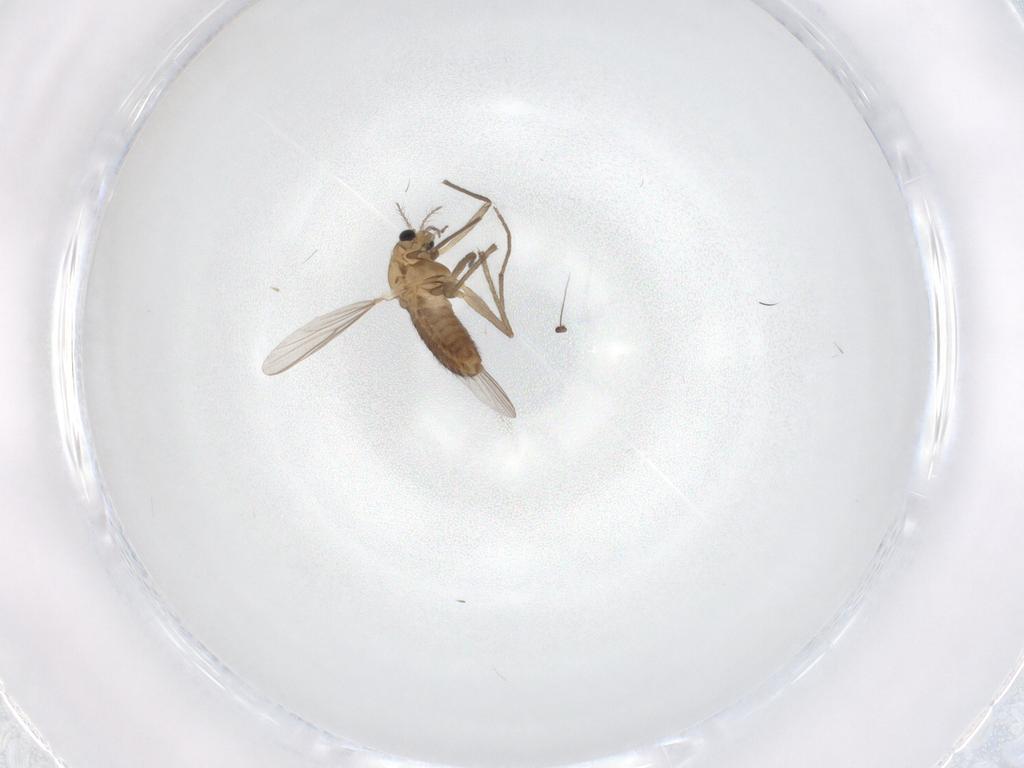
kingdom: Animalia
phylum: Arthropoda
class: Insecta
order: Diptera
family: Chironomidae
